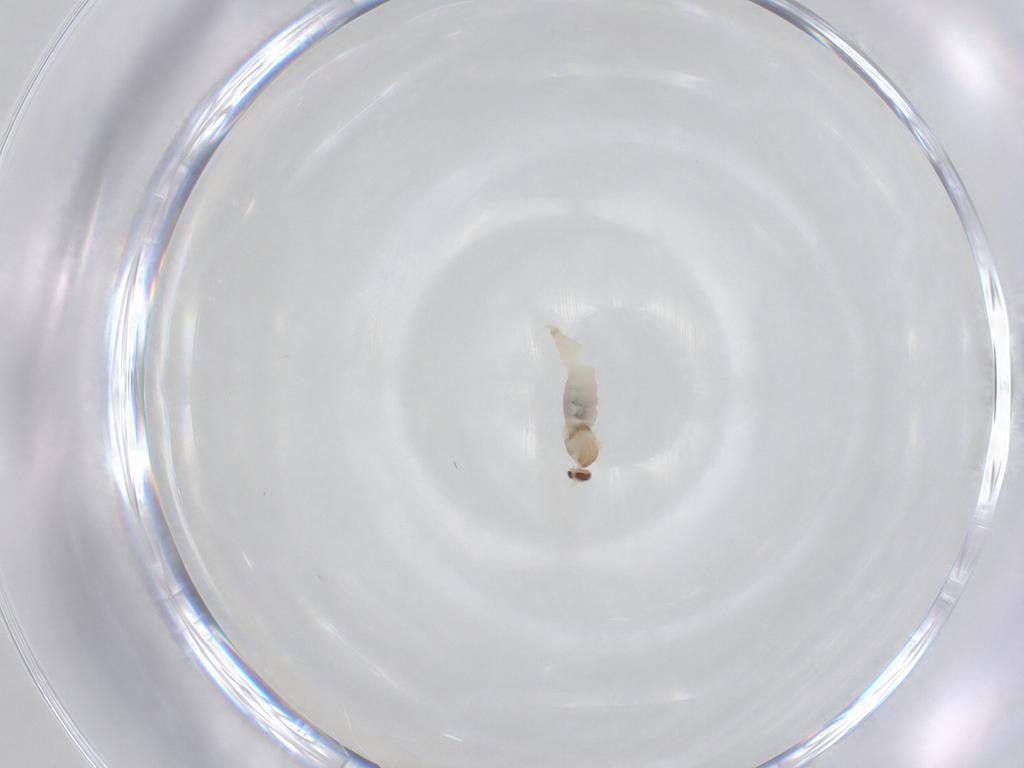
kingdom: Animalia
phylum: Arthropoda
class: Insecta
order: Diptera
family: Cecidomyiidae
